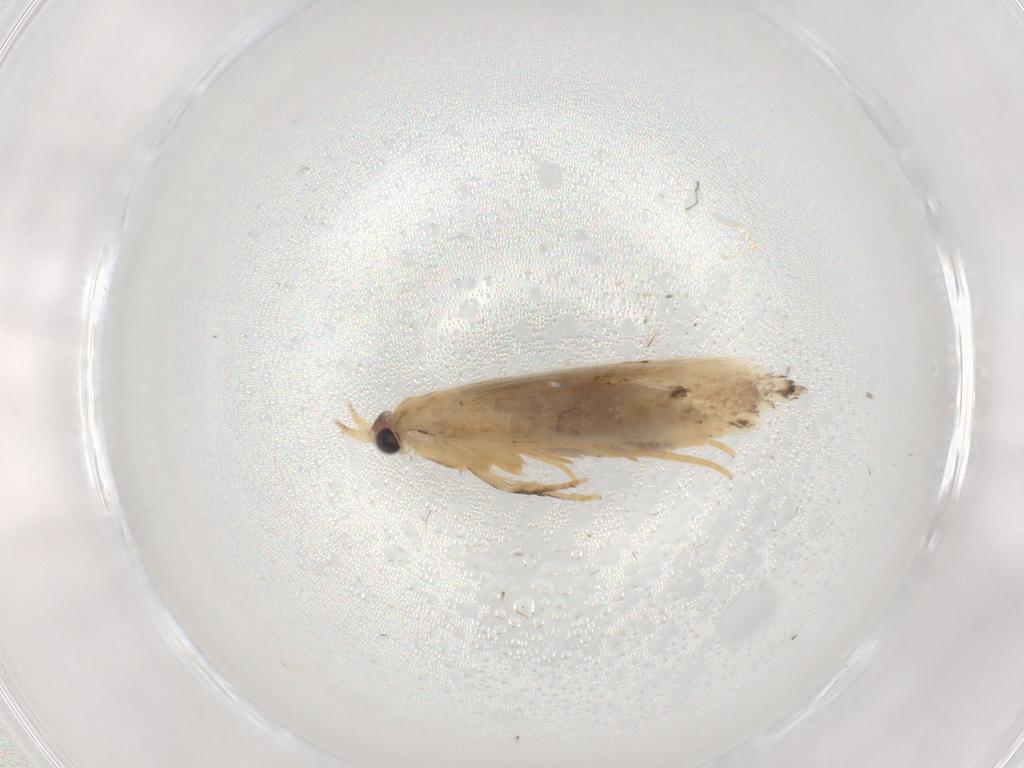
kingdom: Animalia
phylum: Arthropoda
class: Insecta
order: Lepidoptera
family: Nepticulidae
